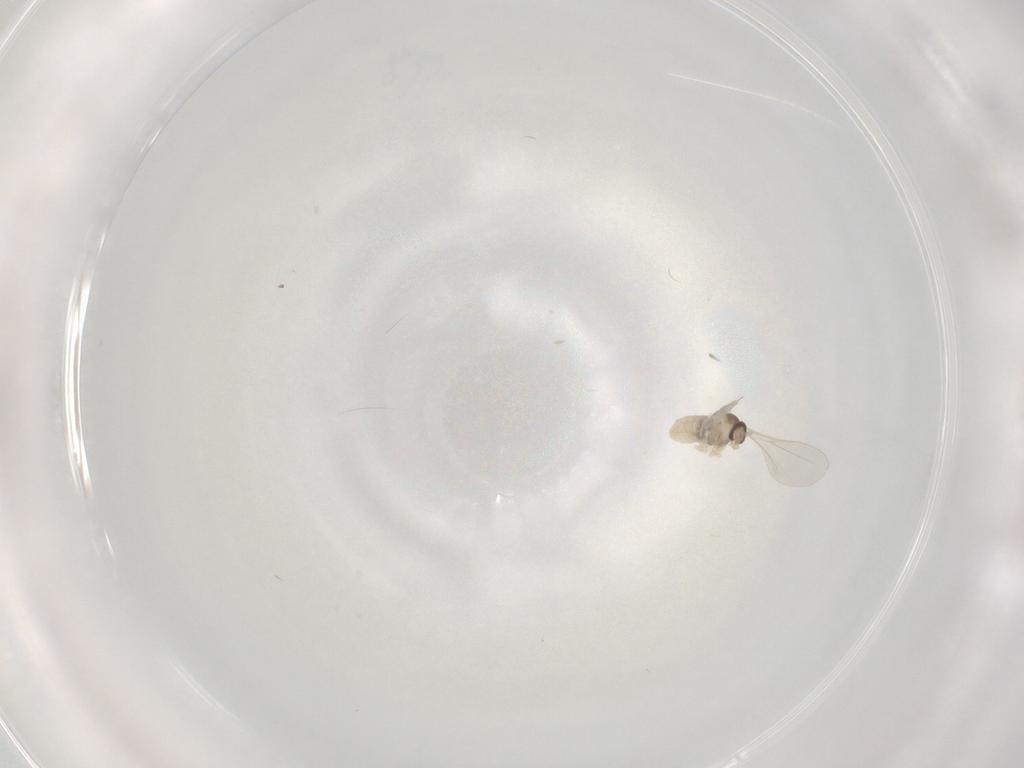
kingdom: Animalia
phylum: Arthropoda
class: Insecta
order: Diptera
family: Cecidomyiidae
